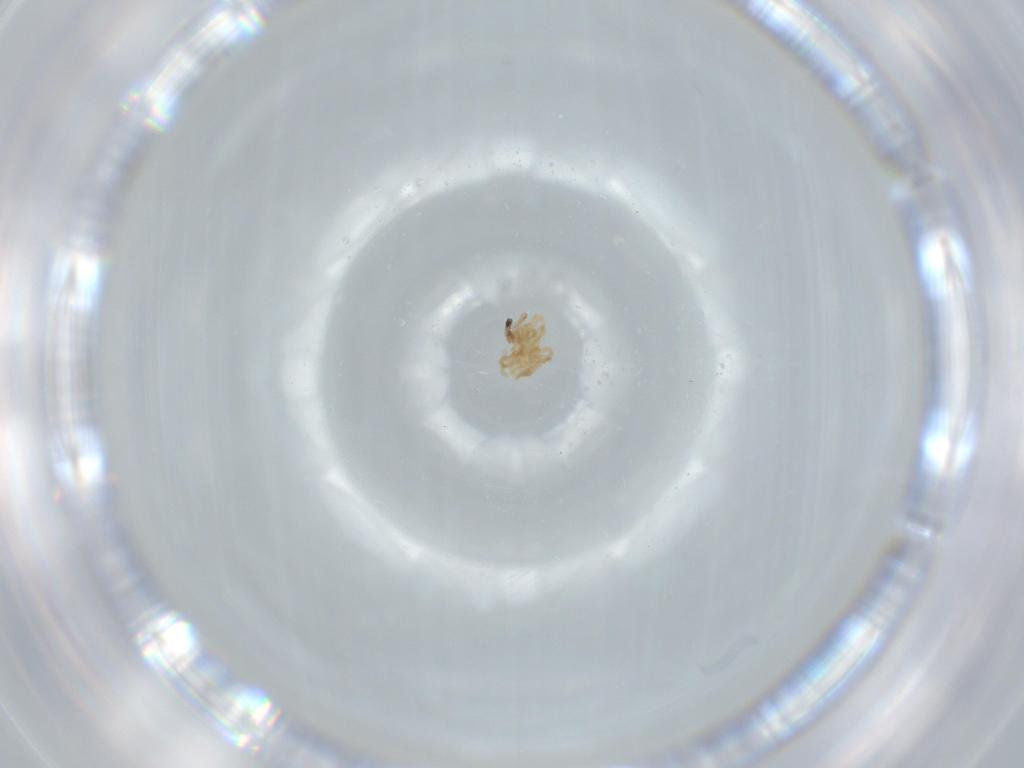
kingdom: Animalia
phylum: Arthropoda
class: Arachnida
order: Mesostigmata
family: Dermanyssidae
